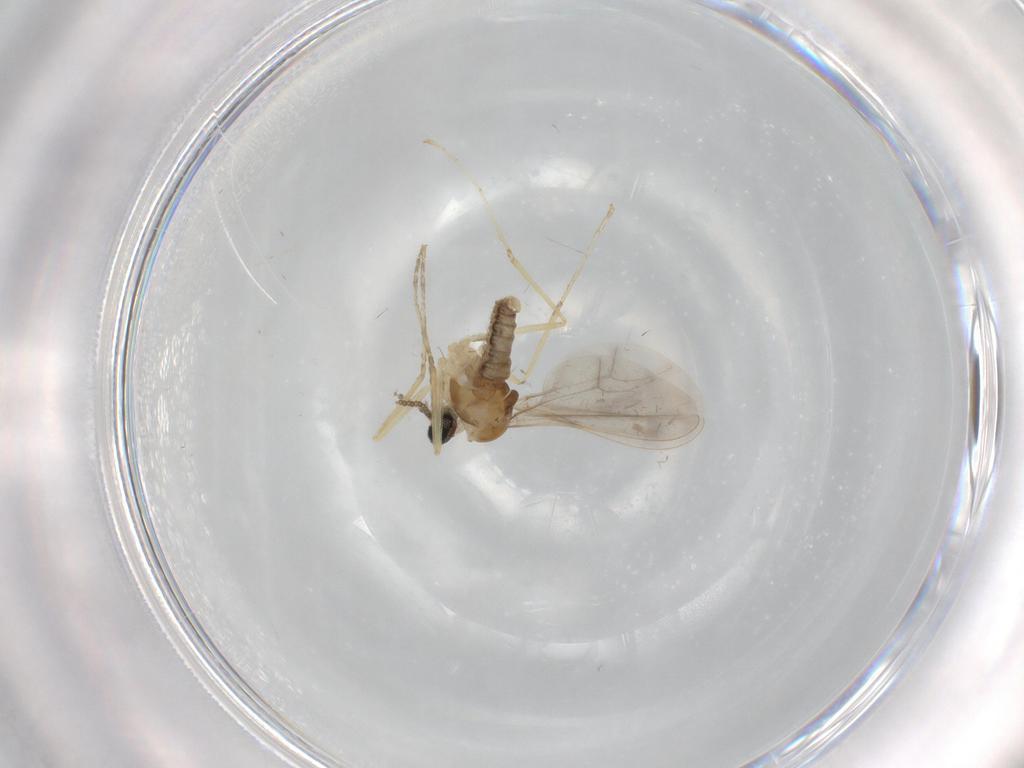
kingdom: Animalia
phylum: Arthropoda
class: Insecta
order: Diptera
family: Cecidomyiidae
